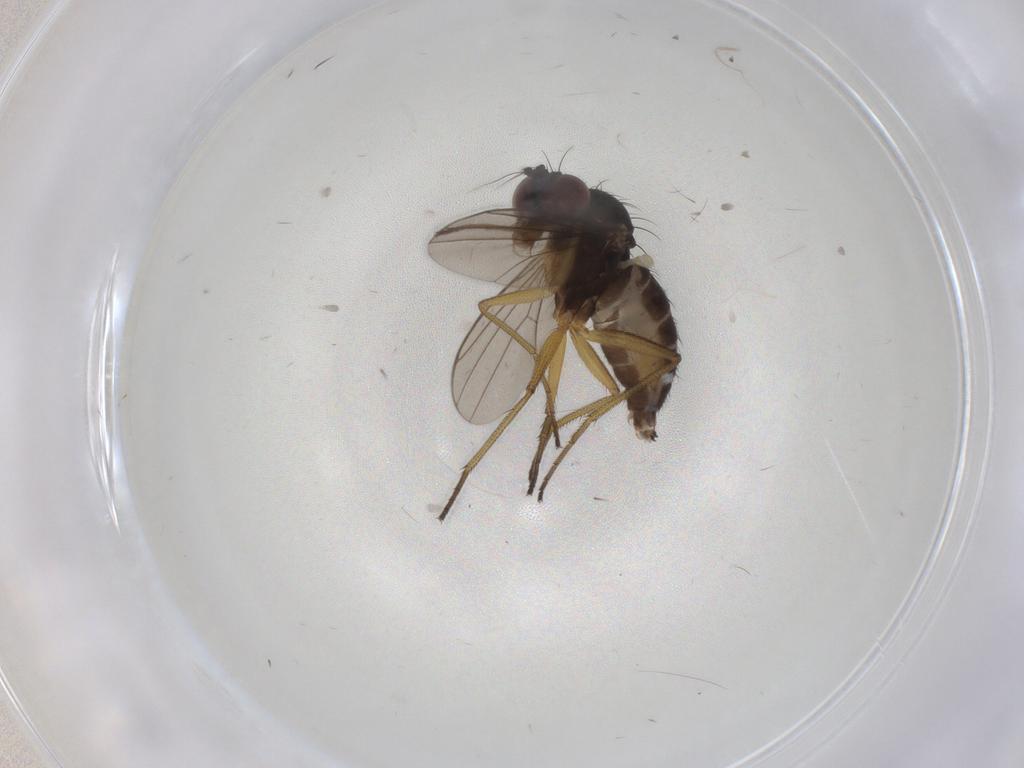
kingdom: Animalia
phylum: Arthropoda
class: Insecta
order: Diptera
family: Dolichopodidae
